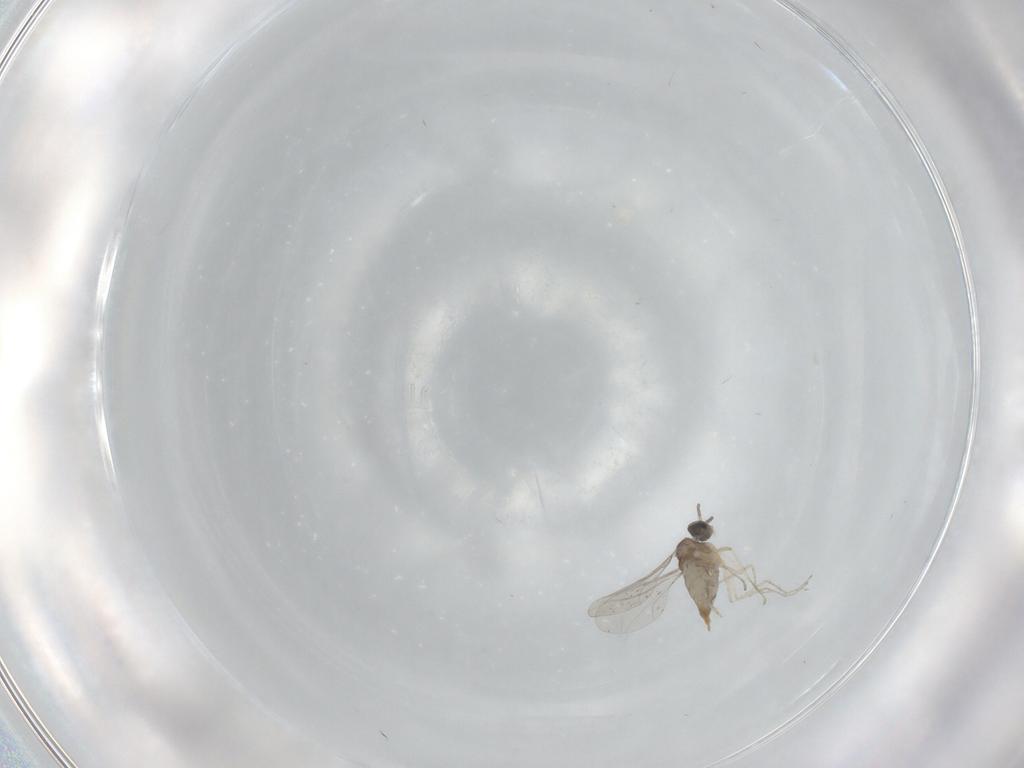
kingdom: Animalia
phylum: Arthropoda
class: Insecta
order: Diptera
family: Cecidomyiidae
